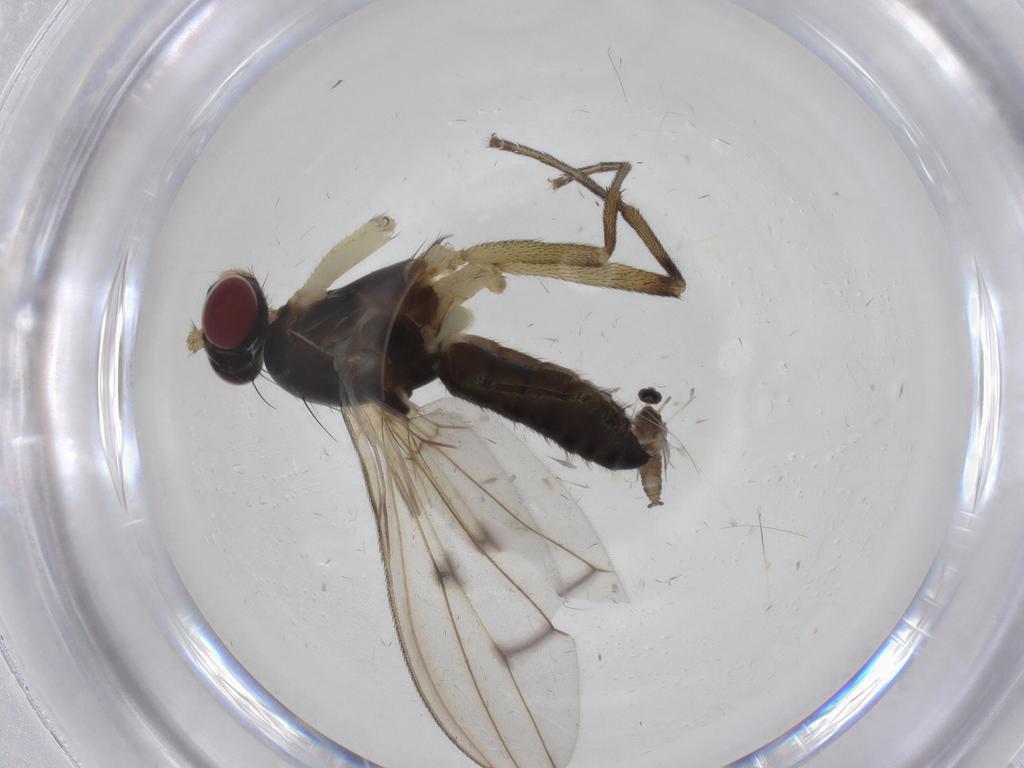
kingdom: Animalia
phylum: Arthropoda
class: Insecta
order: Diptera
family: Sciomyzidae
